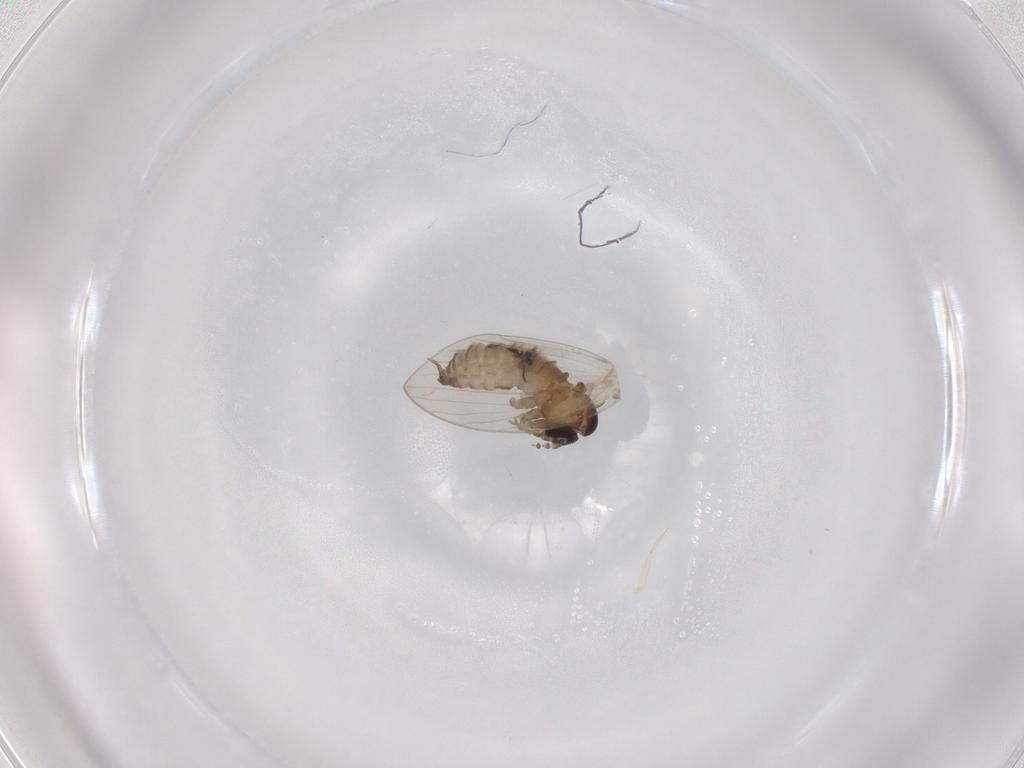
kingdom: Animalia
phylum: Arthropoda
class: Insecta
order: Diptera
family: Psychodidae
